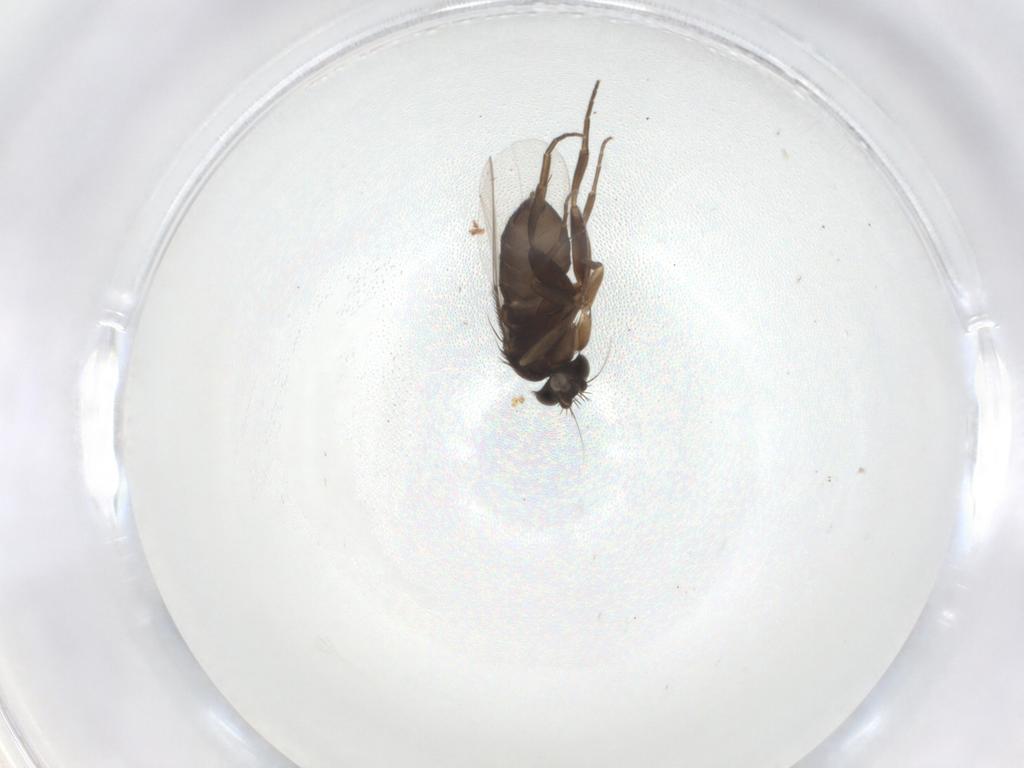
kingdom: Animalia
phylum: Arthropoda
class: Insecta
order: Diptera
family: Phoridae
